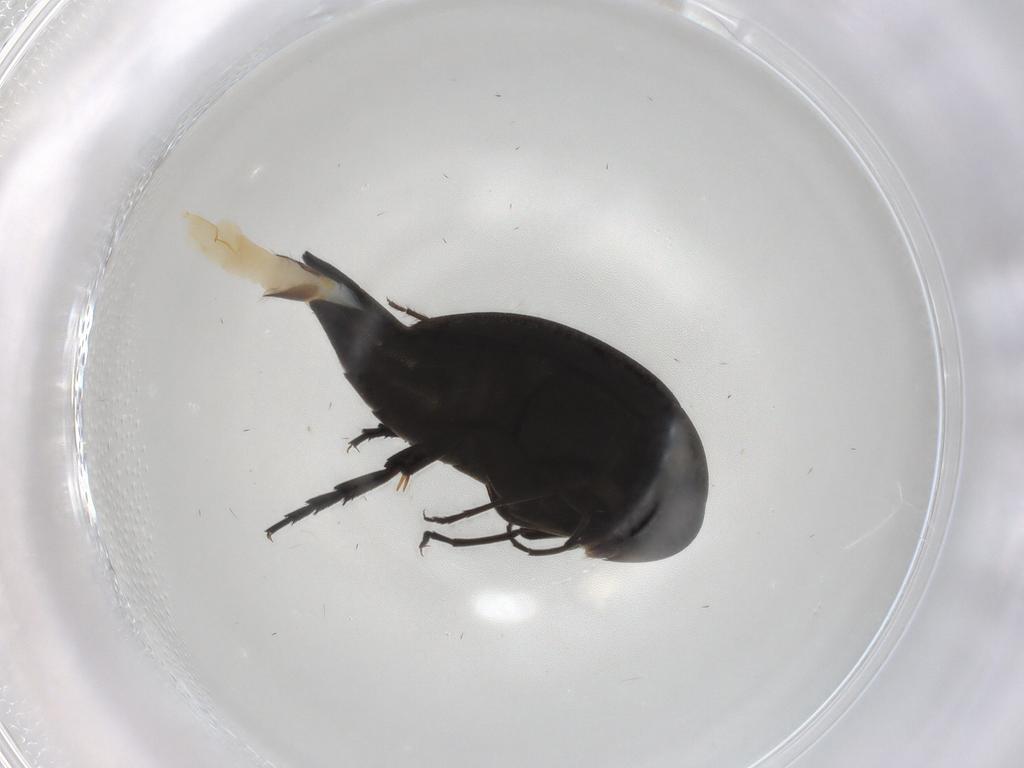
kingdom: Animalia
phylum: Arthropoda
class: Insecta
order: Coleoptera
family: Mordellidae
